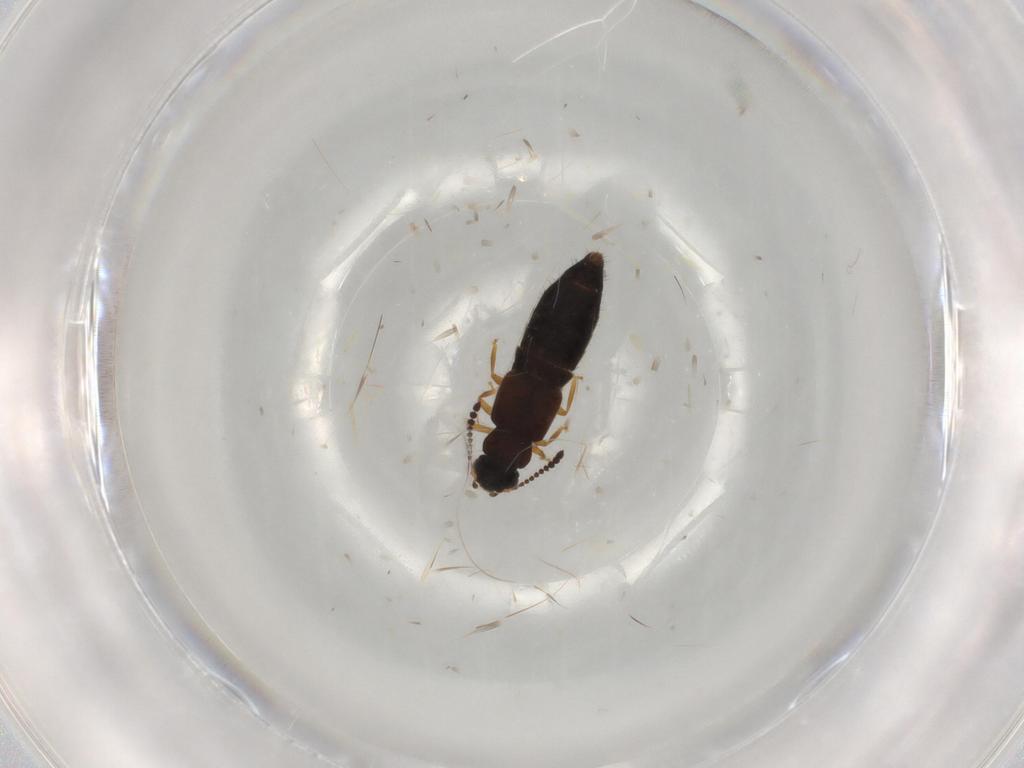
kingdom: Animalia
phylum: Arthropoda
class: Insecta
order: Coleoptera
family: Staphylinidae
